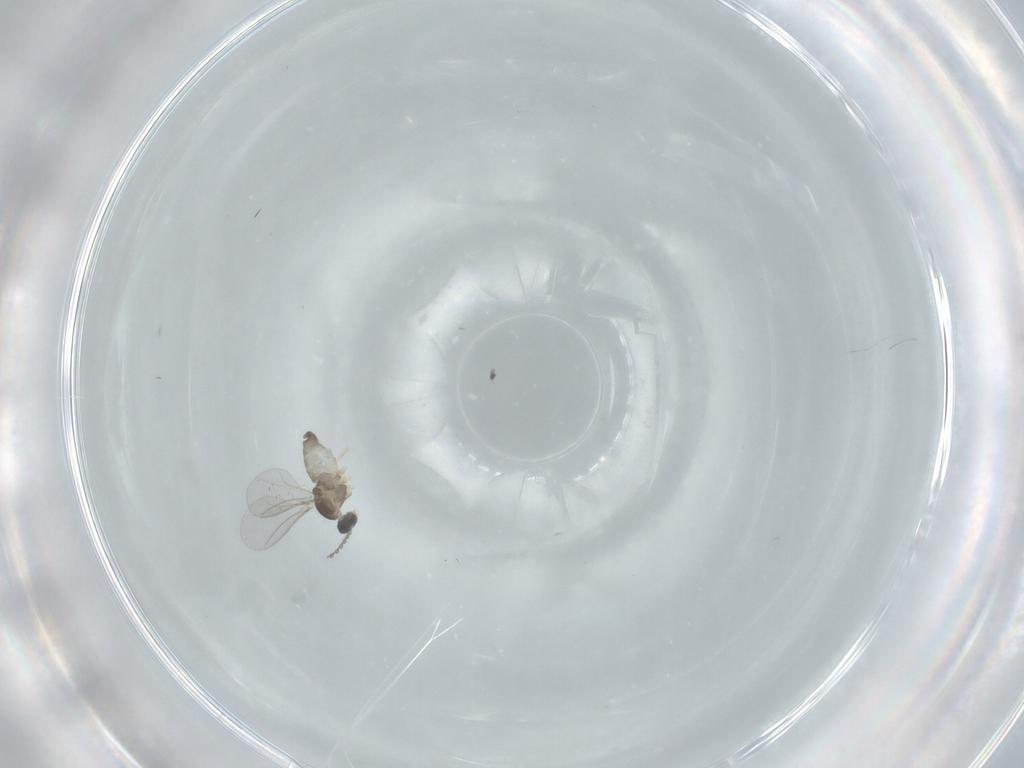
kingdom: Animalia
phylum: Arthropoda
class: Insecta
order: Diptera
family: Cecidomyiidae
